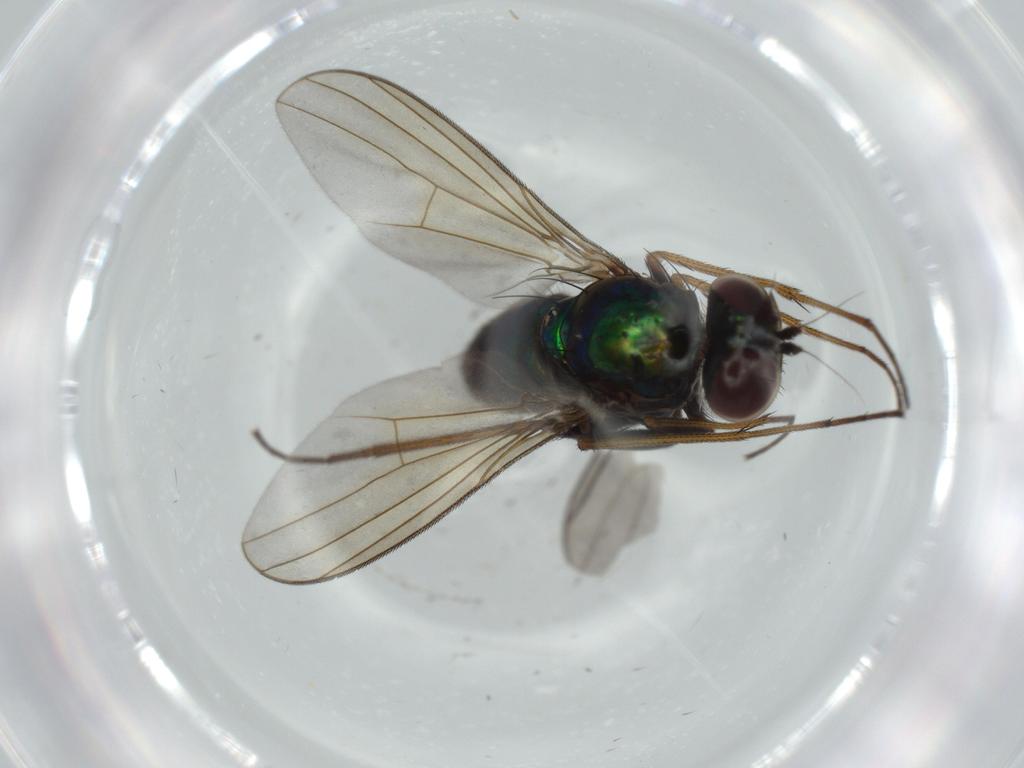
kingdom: Animalia
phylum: Arthropoda
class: Insecta
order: Diptera
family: Dolichopodidae
